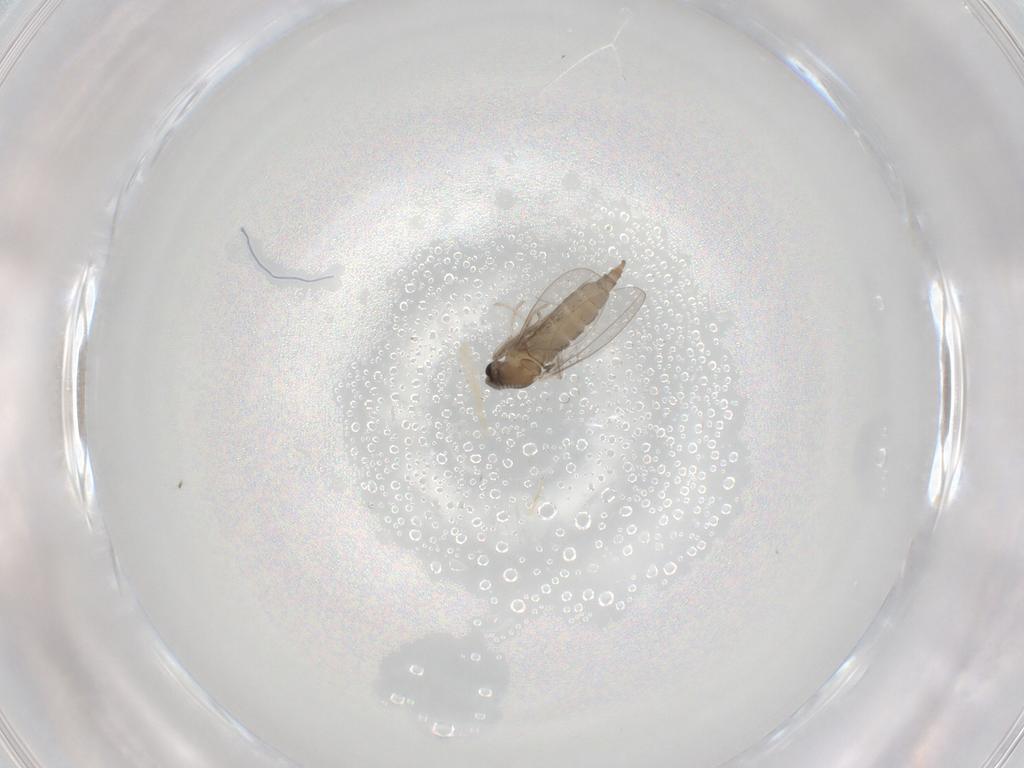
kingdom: Animalia
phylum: Arthropoda
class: Insecta
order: Diptera
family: Cecidomyiidae
